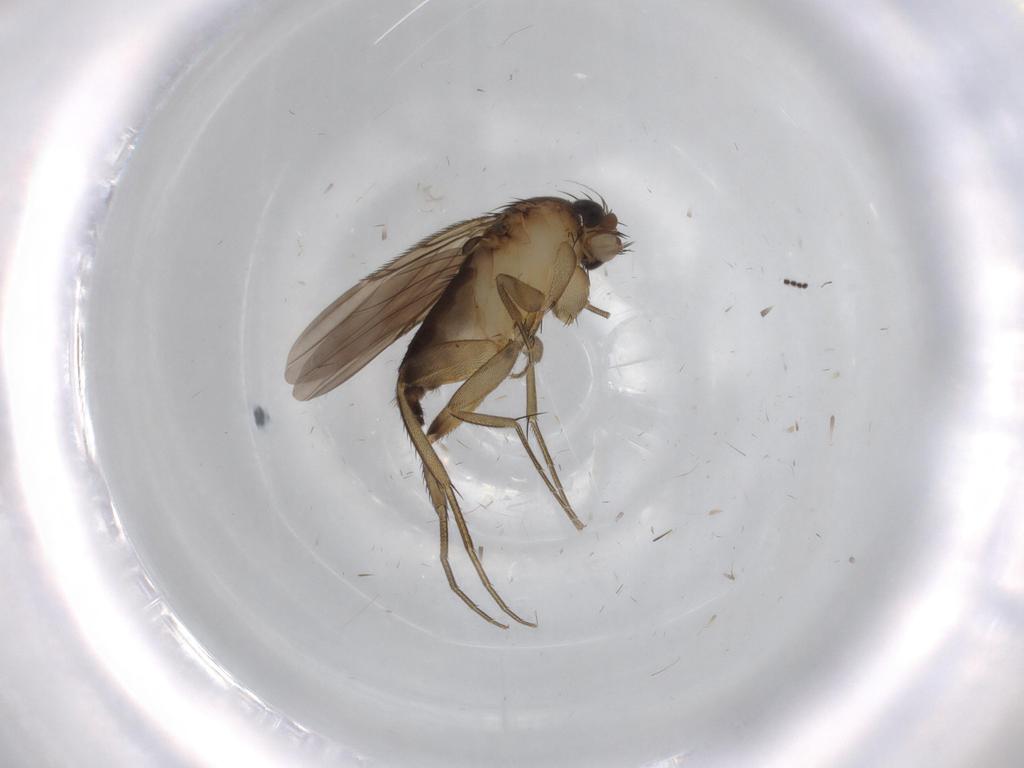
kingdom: Animalia
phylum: Arthropoda
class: Insecta
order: Diptera
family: Phoridae
